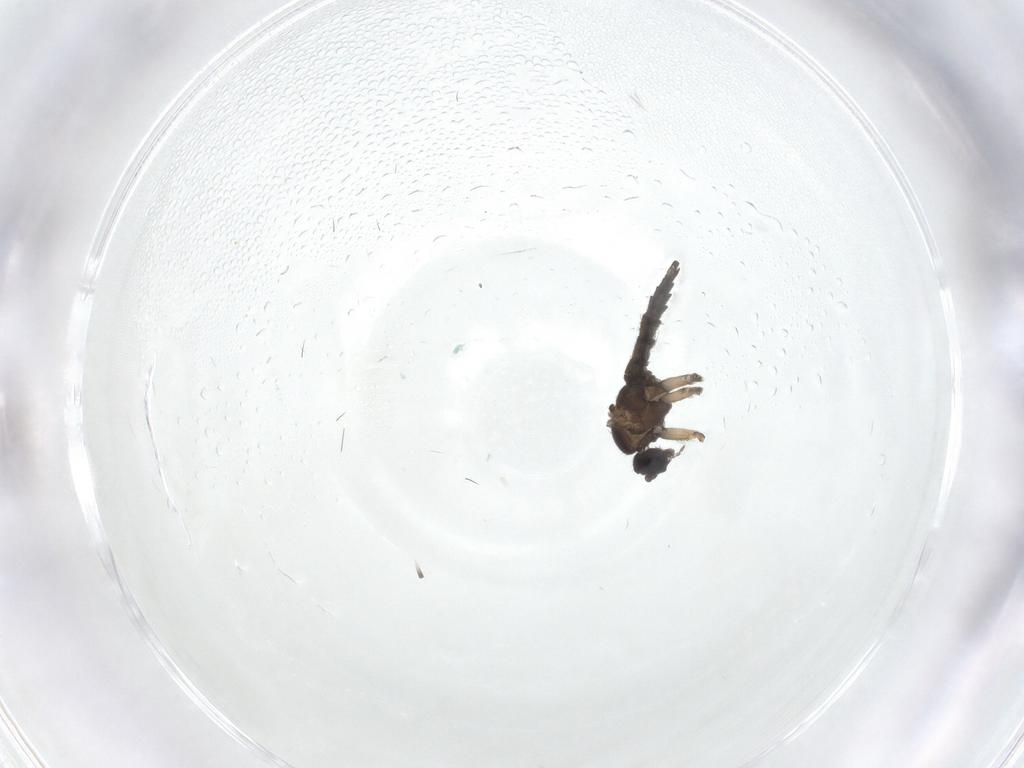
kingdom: Animalia
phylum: Arthropoda
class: Insecta
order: Diptera
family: Sciaridae
